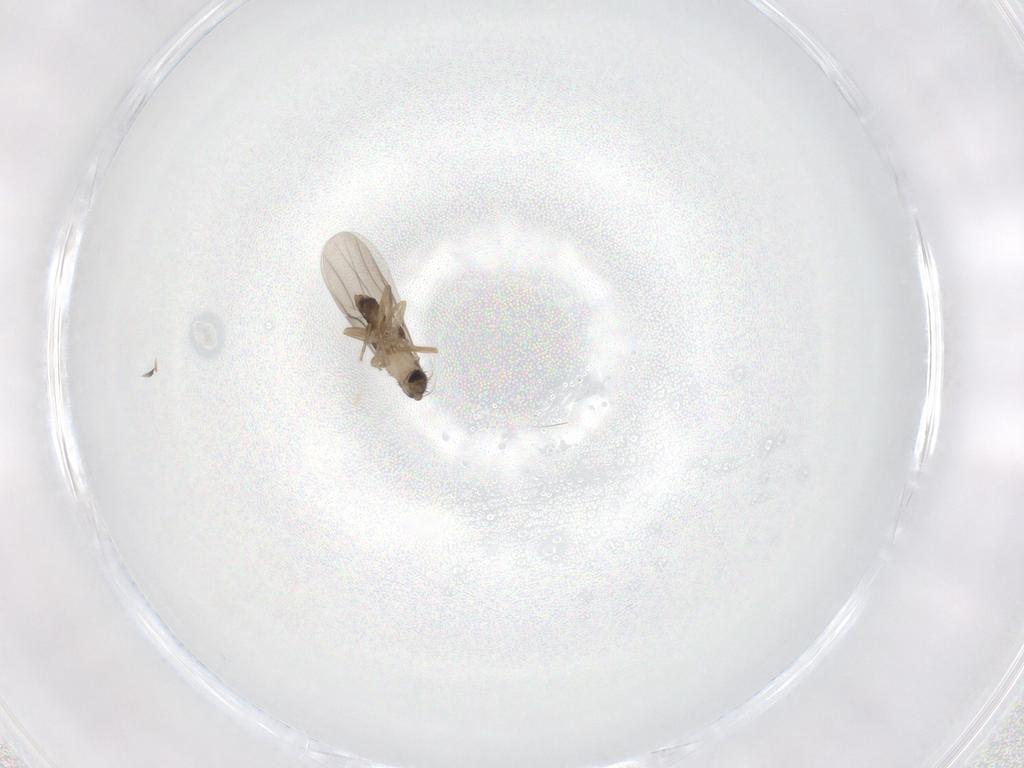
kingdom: Animalia
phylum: Arthropoda
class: Insecta
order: Diptera
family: Phoridae
